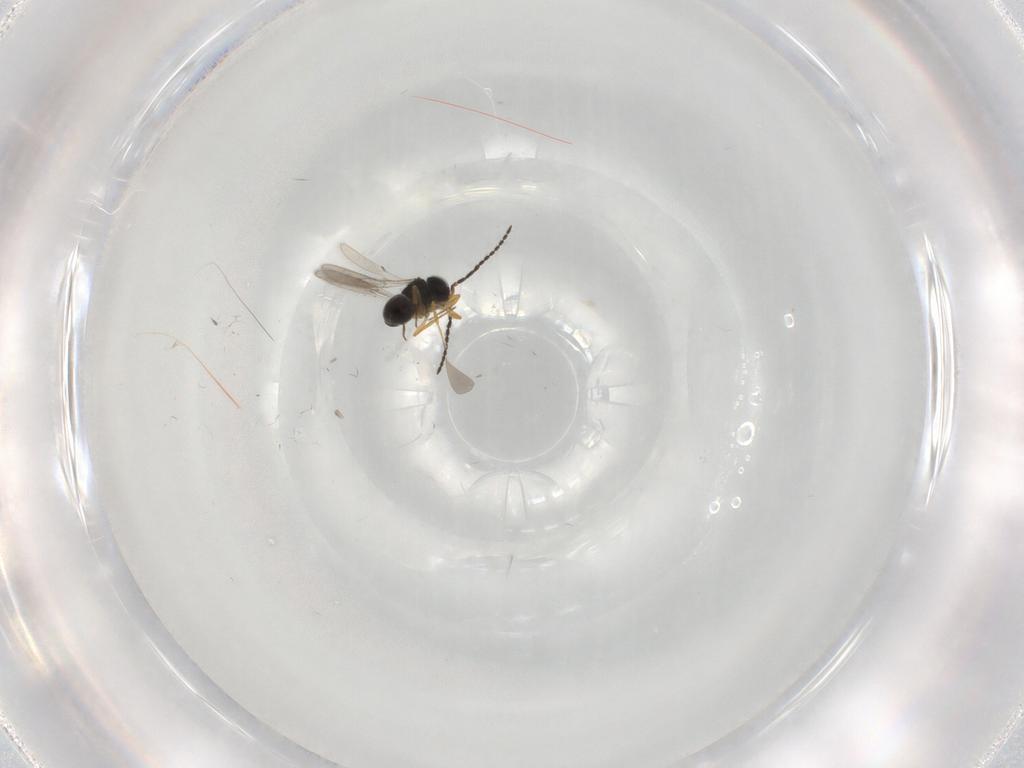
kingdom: Animalia
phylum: Arthropoda
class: Insecta
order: Hymenoptera
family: Scelionidae
